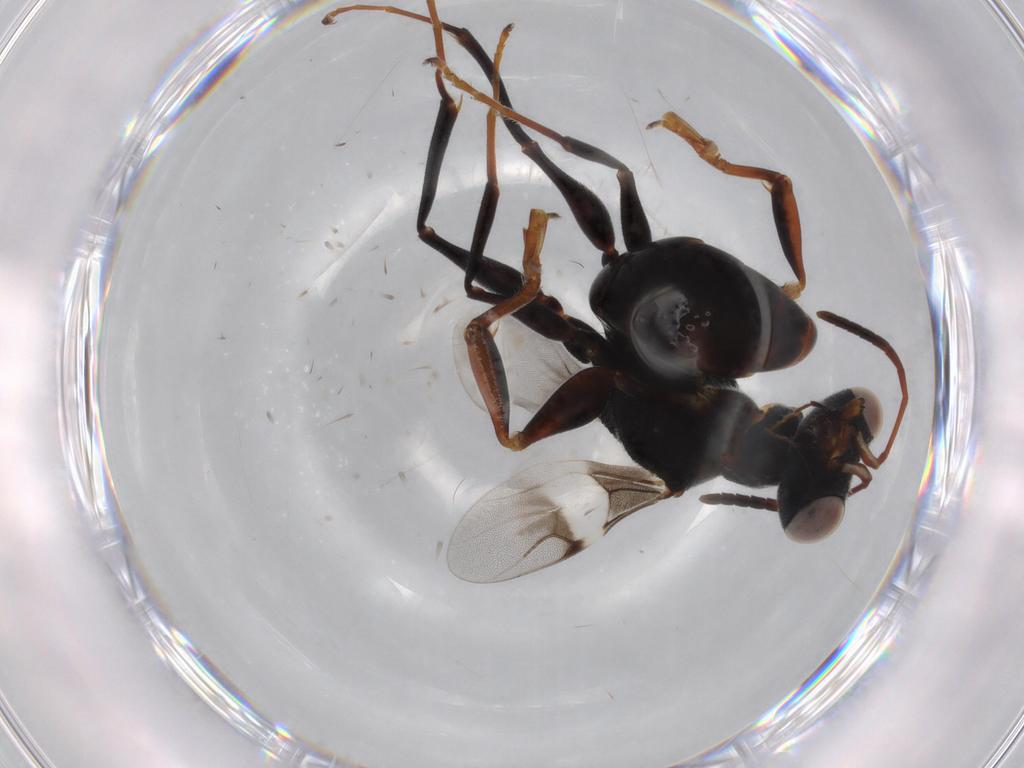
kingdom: Animalia
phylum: Arthropoda
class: Insecta
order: Hymenoptera
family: Dryinidae
